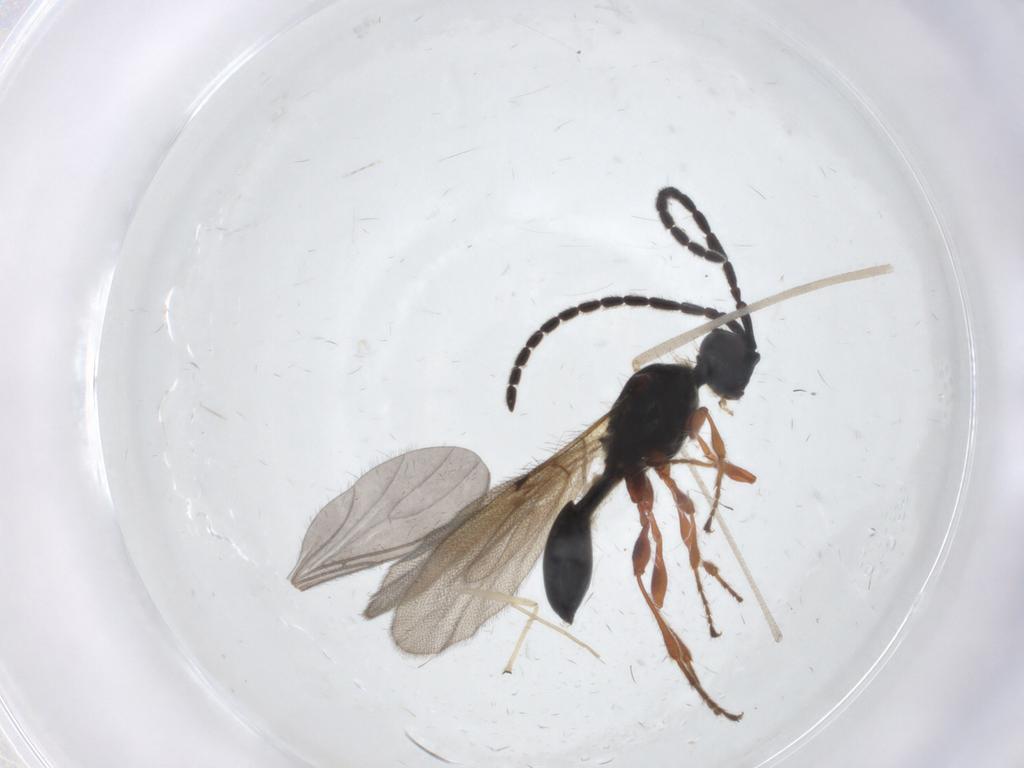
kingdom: Animalia
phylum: Arthropoda
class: Insecta
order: Hymenoptera
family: Diapriidae
